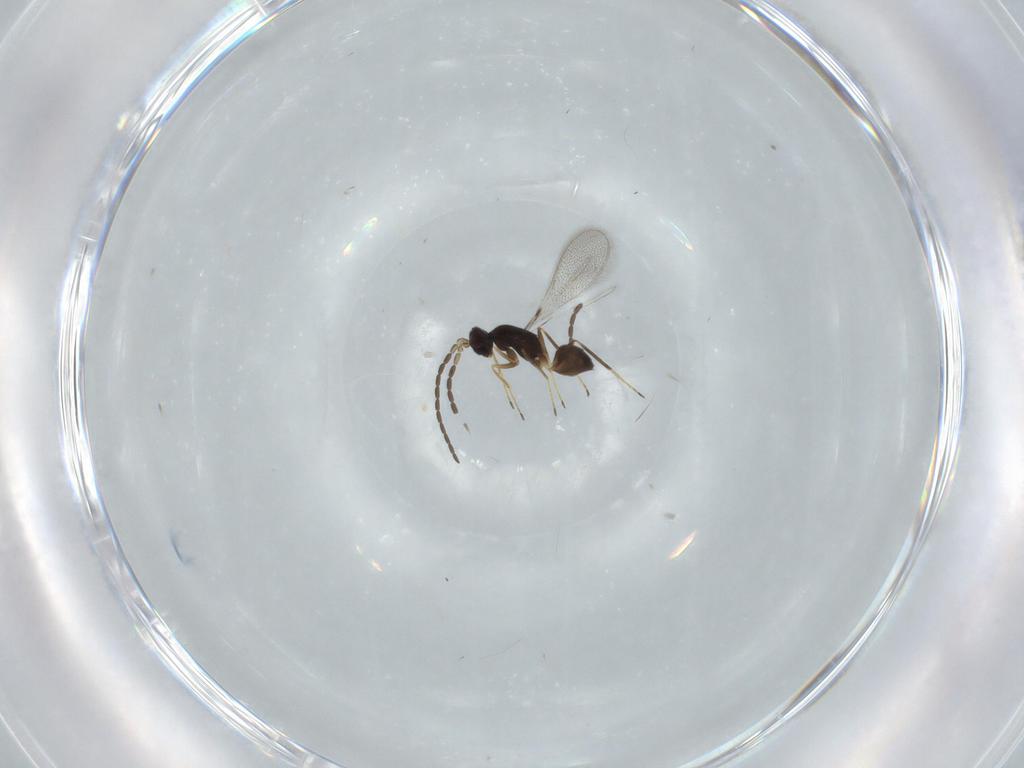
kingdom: Animalia
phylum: Arthropoda
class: Insecta
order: Hymenoptera
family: Mymaridae
